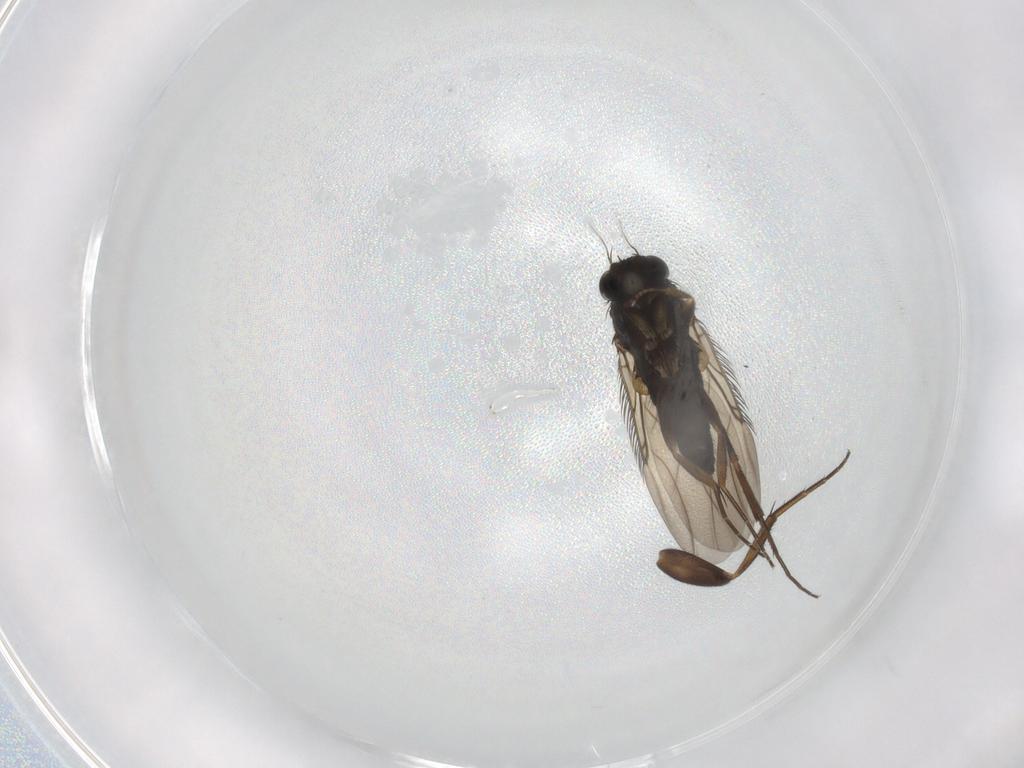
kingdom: Animalia
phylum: Arthropoda
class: Insecta
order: Diptera
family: Phoridae
